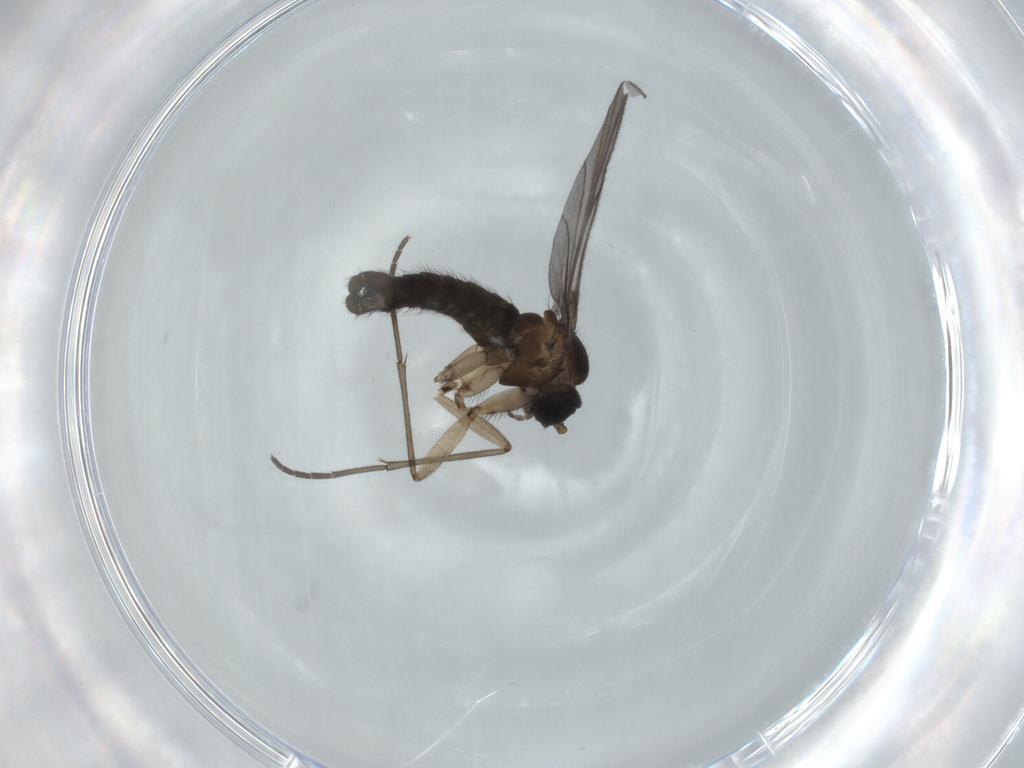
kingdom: Animalia
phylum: Arthropoda
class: Insecta
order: Diptera
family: Sciaridae
